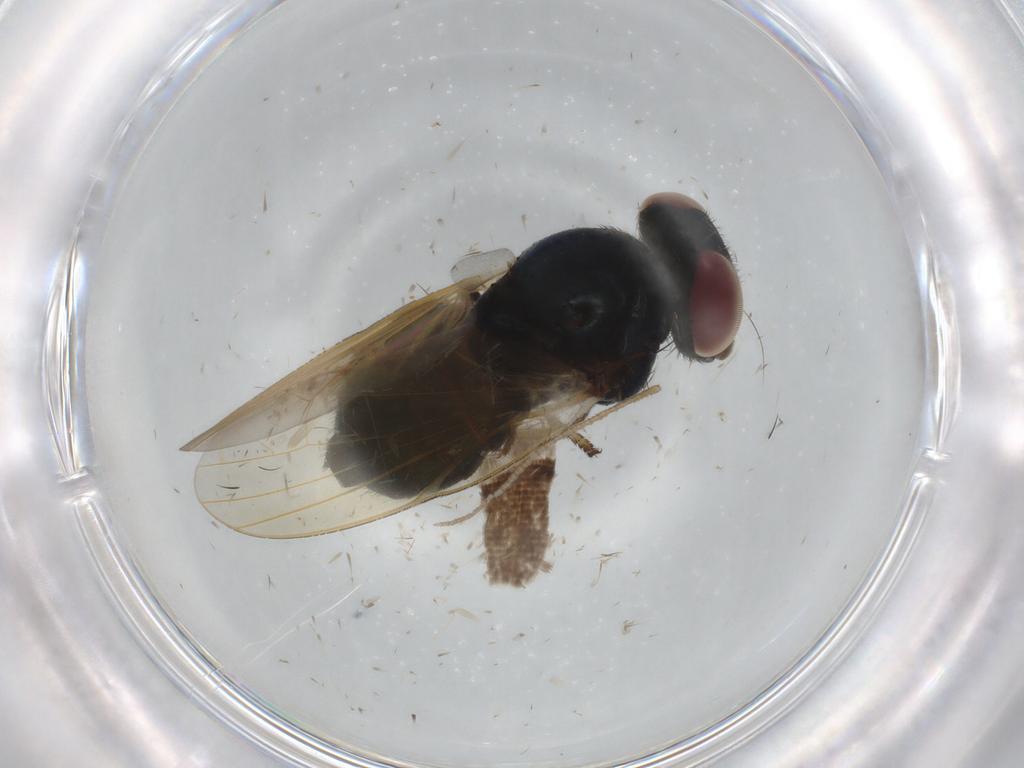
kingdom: Animalia
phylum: Arthropoda
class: Insecta
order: Diptera
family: Lonchaeidae
